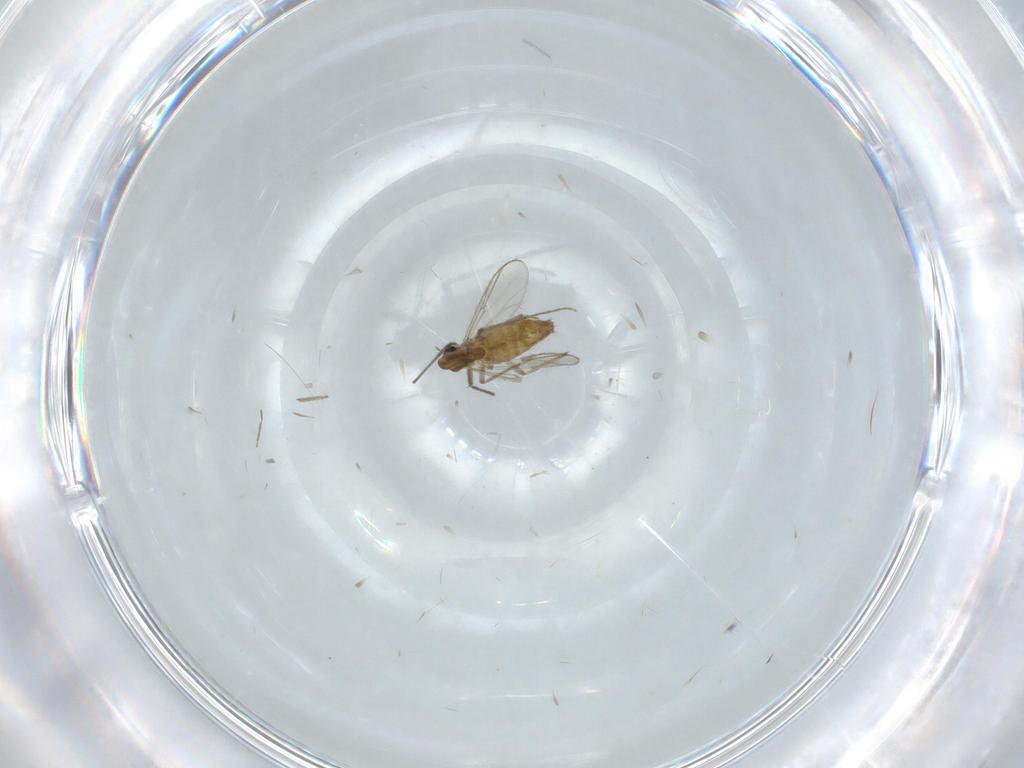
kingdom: Animalia
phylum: Arthropoda
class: Insecta
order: Diptera
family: Chironomidae
